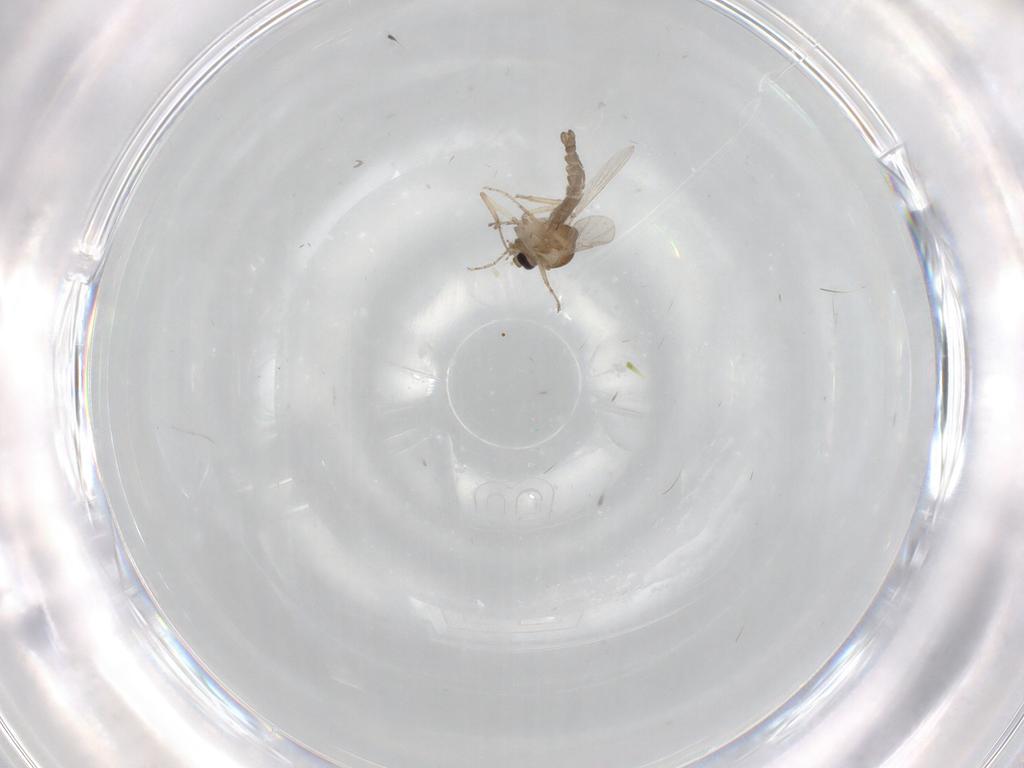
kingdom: Animalia
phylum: Arthropoda
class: Insecta
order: Diptera
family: Ceratopogonidae
